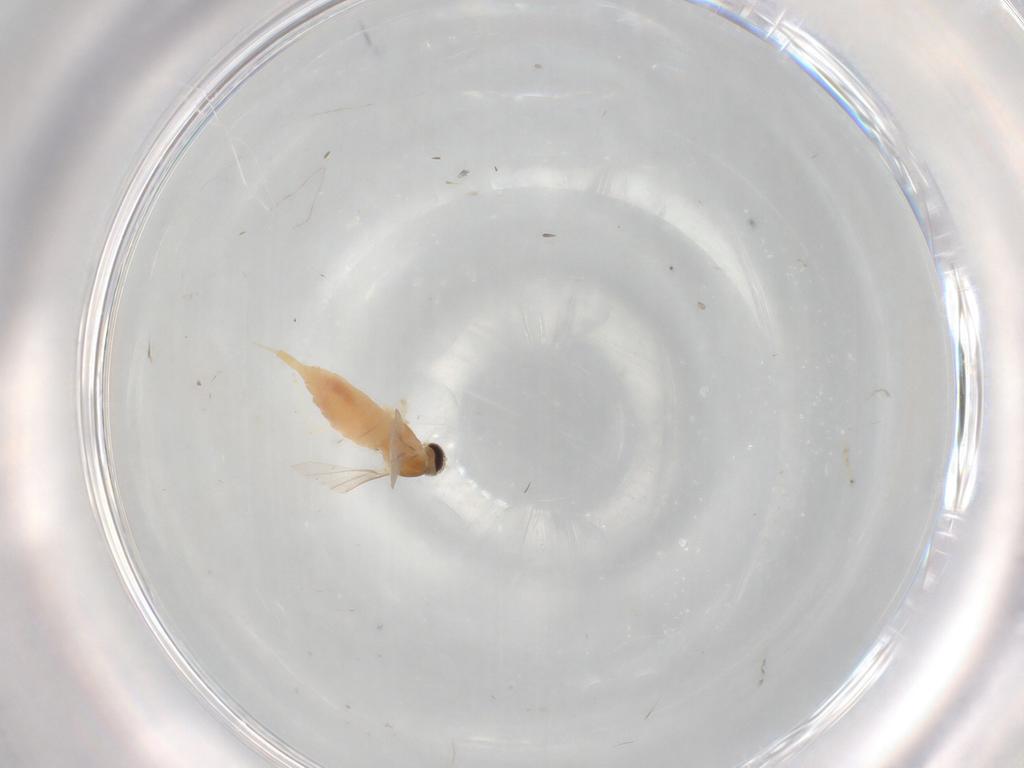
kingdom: Animalia
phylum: Arthropoda
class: Insecta
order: Diptera
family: Cecidomyiidae
